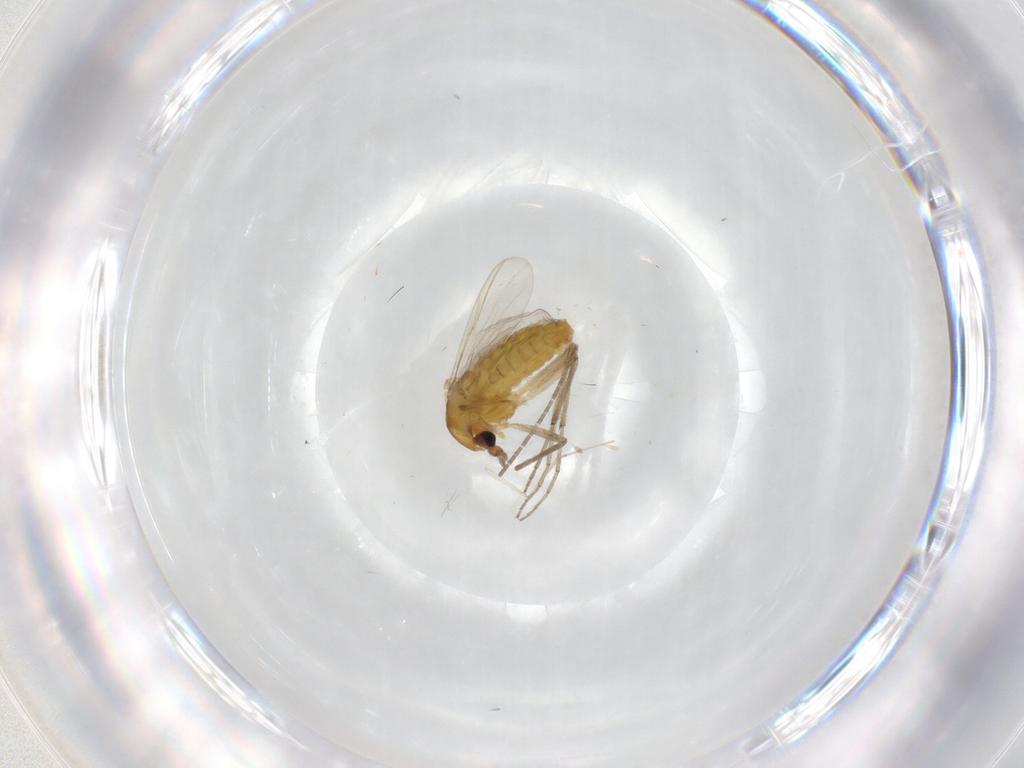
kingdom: Animalia
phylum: Arthropoda
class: Insecta
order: Diptera
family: Chironomidae
